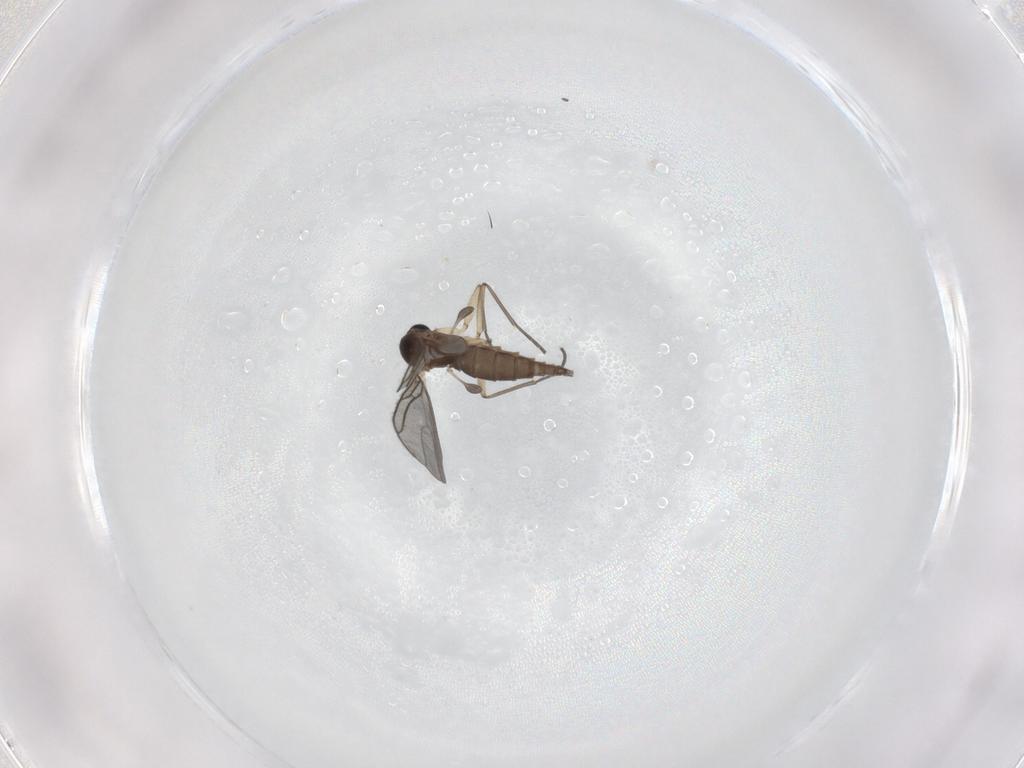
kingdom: Animalia
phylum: Arthropoda
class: Insecta
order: Diptera
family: Sciaridae
